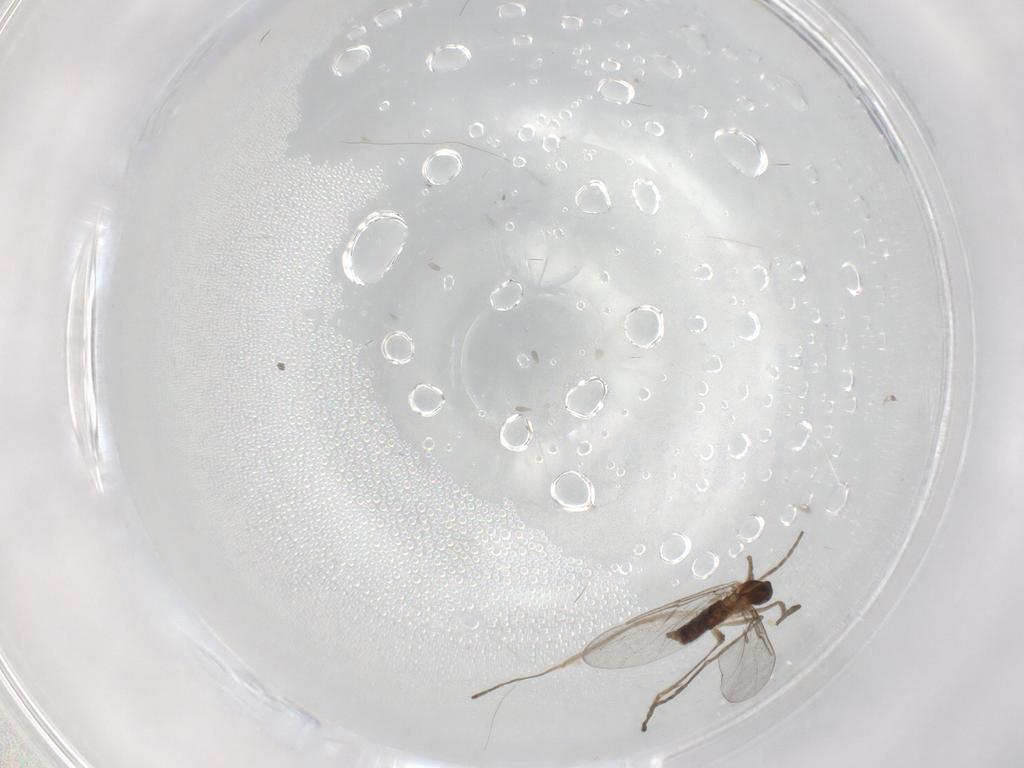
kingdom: Animalia
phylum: Arthropoda
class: Insecta
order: Diptera
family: Cecidomyiidae
